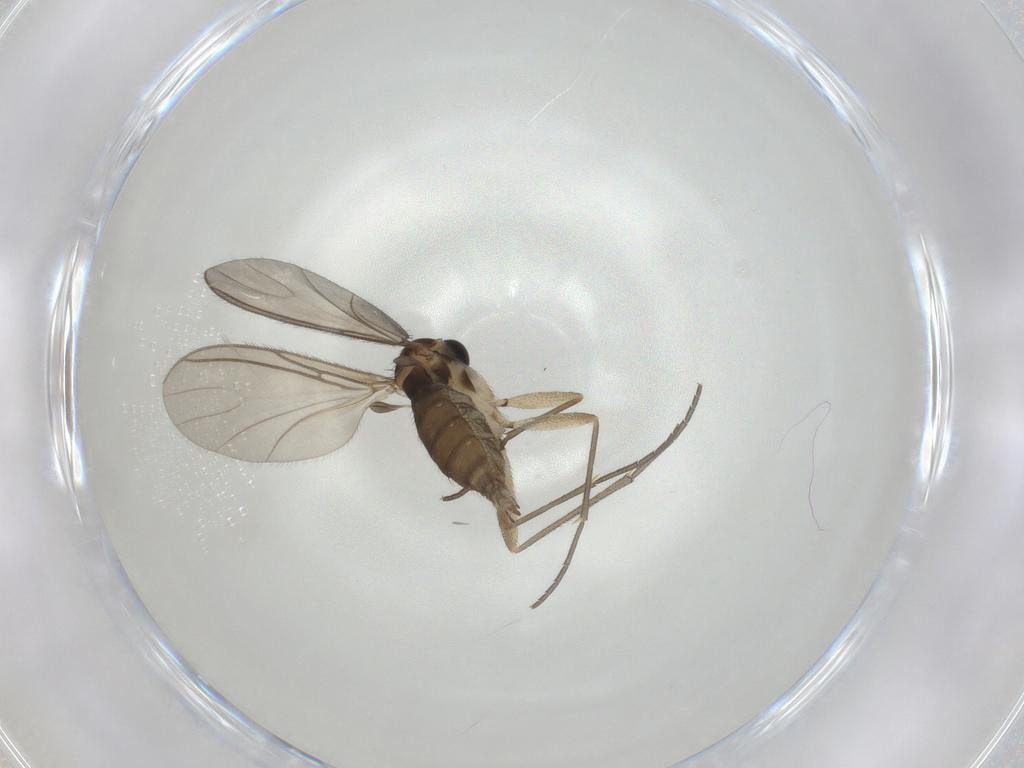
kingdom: Animalia
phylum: Arthropoda
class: Insecta
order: Diptera
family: Sciaridae
